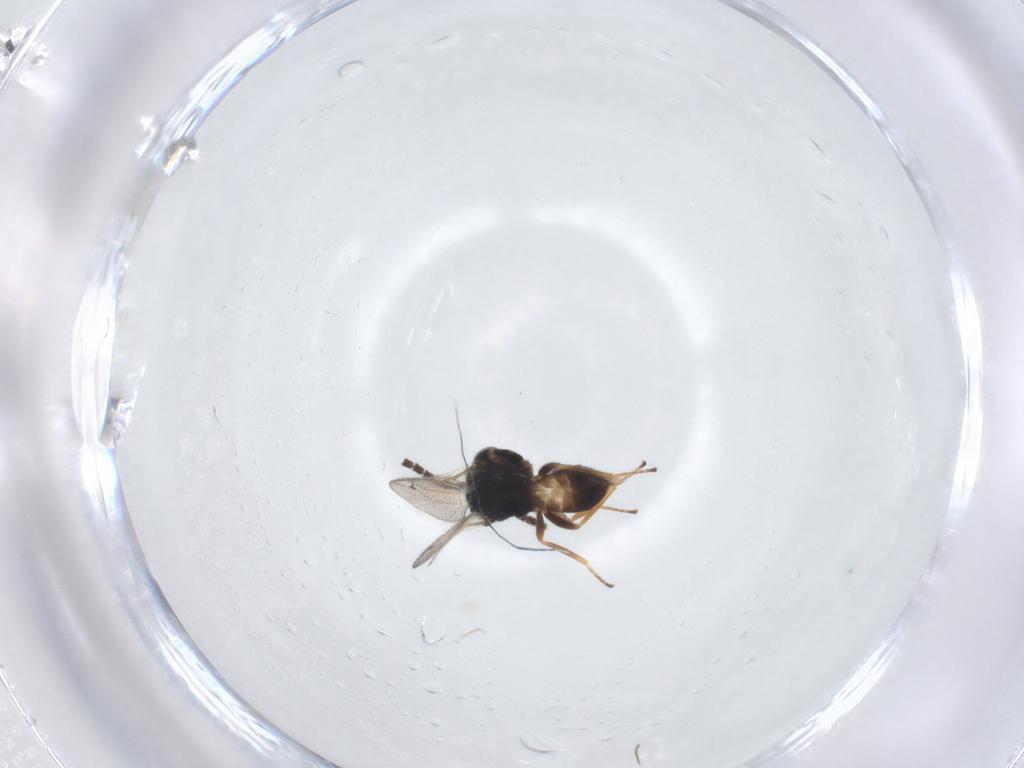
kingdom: Animalia
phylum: Arthropoda
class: Insecta
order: Hymenoptera
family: Pteromalidae
